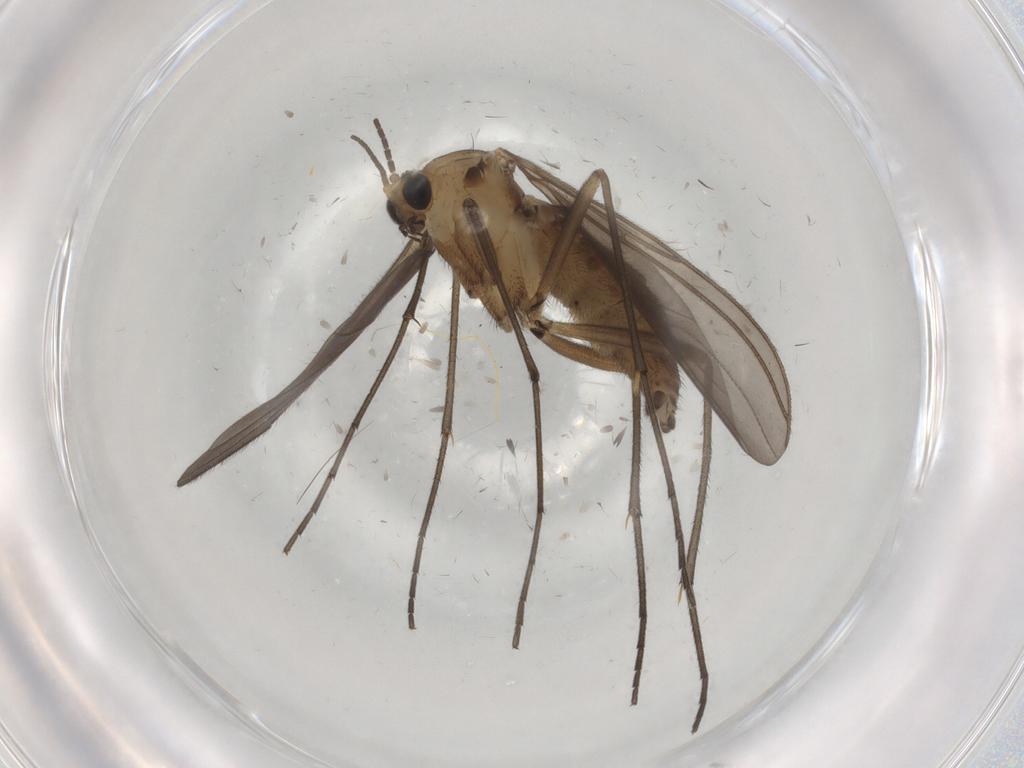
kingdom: Animalia
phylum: Arthropoda
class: Insecta
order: Diptera
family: Sciaridae
